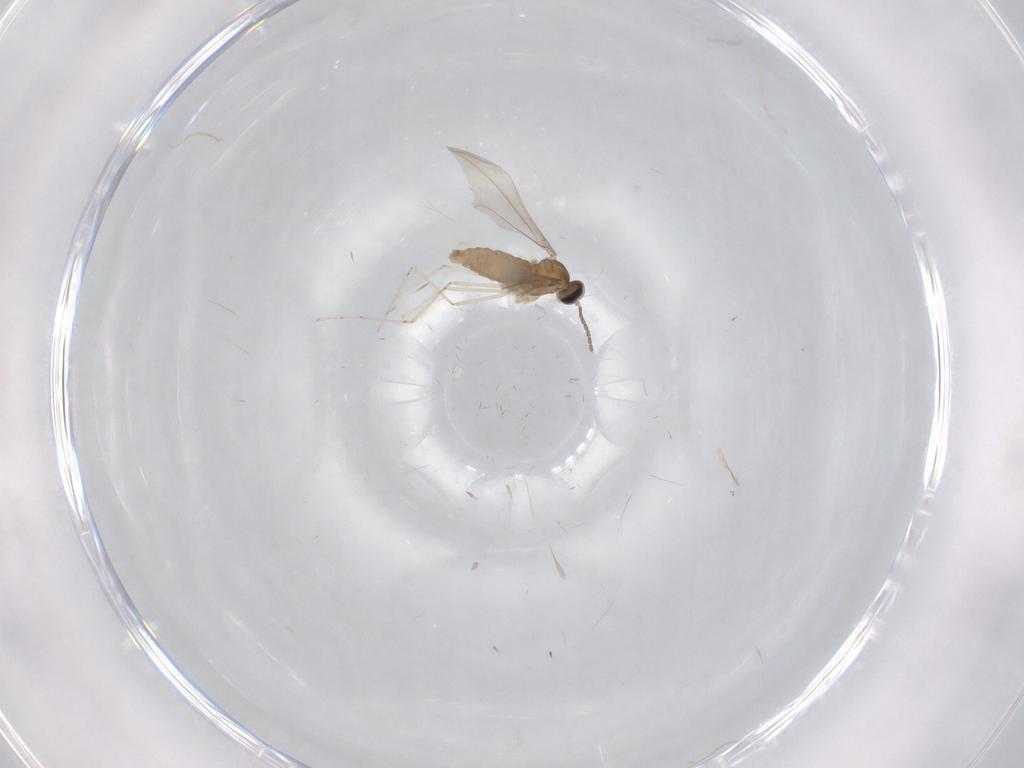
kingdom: Animalia
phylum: Arthropoda
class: Insecta
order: Diptera
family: Cecidomyiidae
